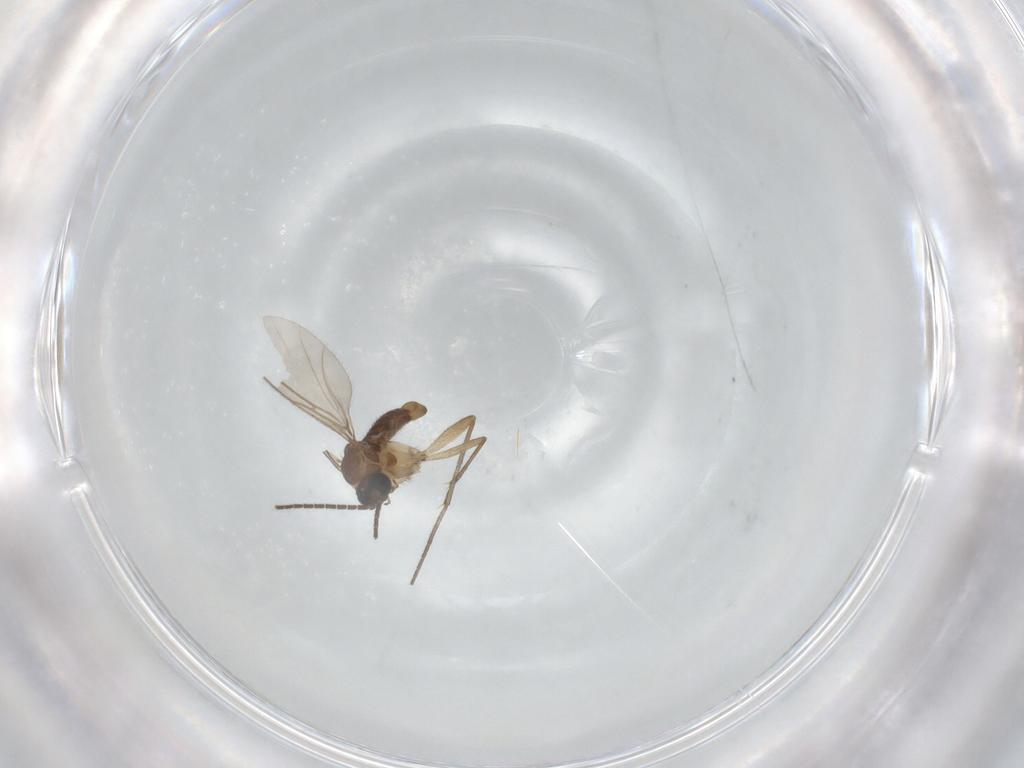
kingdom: Animalia
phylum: Arthropoda
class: Insecta
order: Diptera
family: Sciaridae
